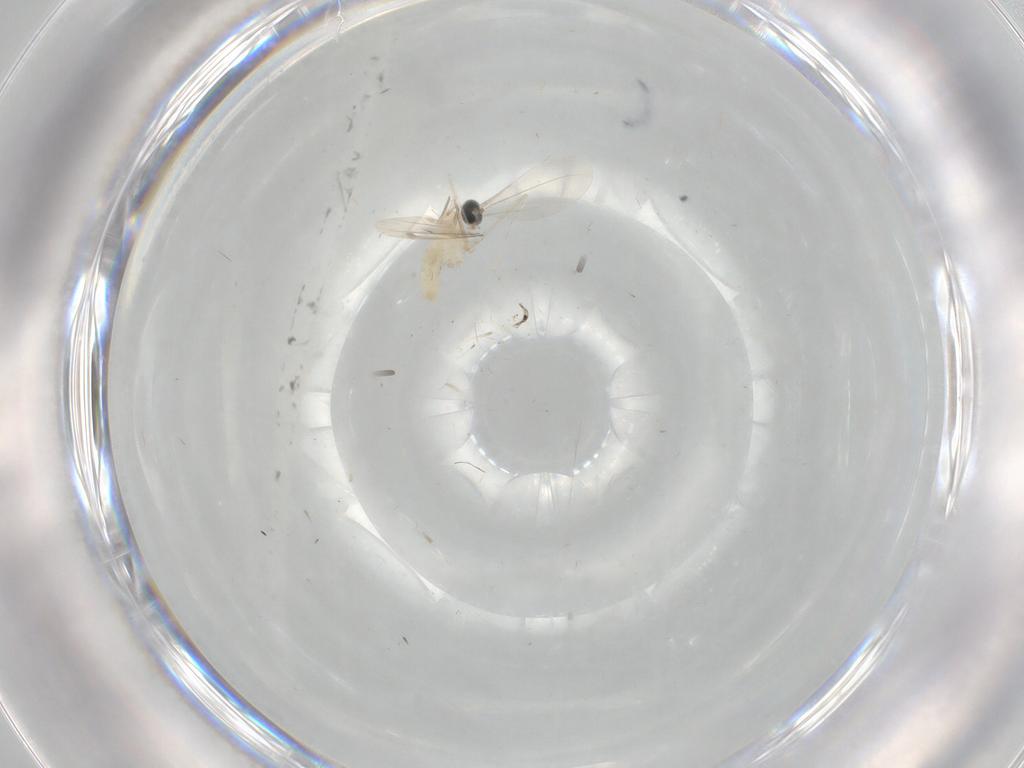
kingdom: Animalia
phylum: Arthropoda
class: Insecta
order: Diptera
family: Cecidomyiidae
